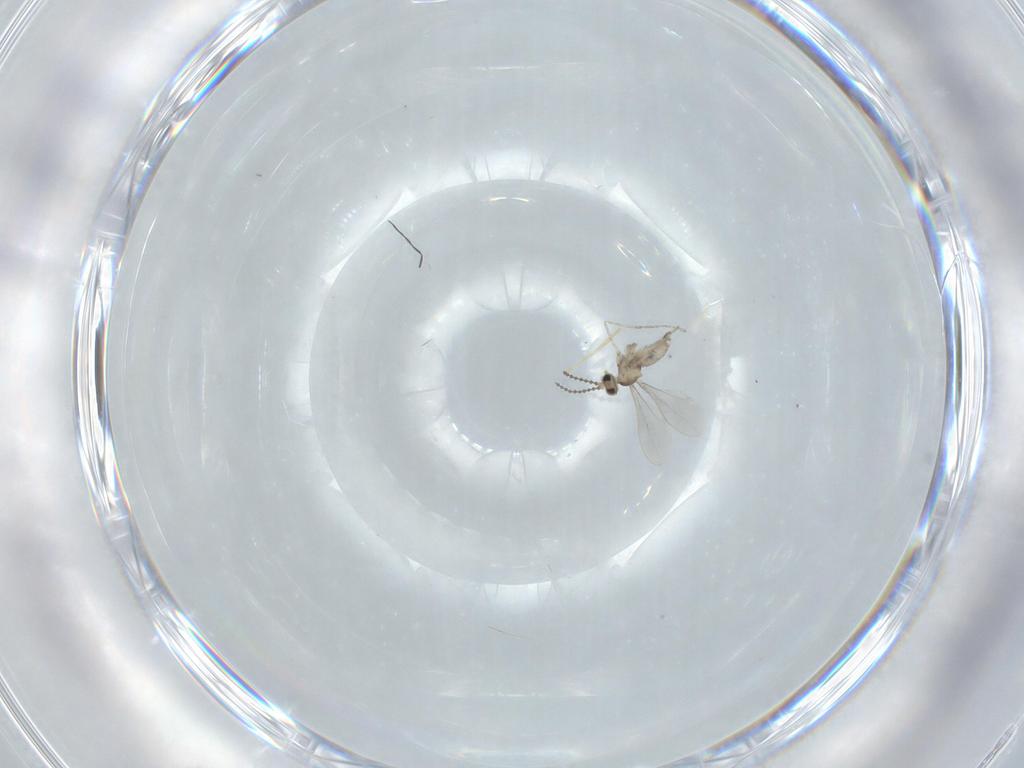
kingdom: Animalia
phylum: Arthropoda
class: Insecta
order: Diptera
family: Cecidomyiidae
